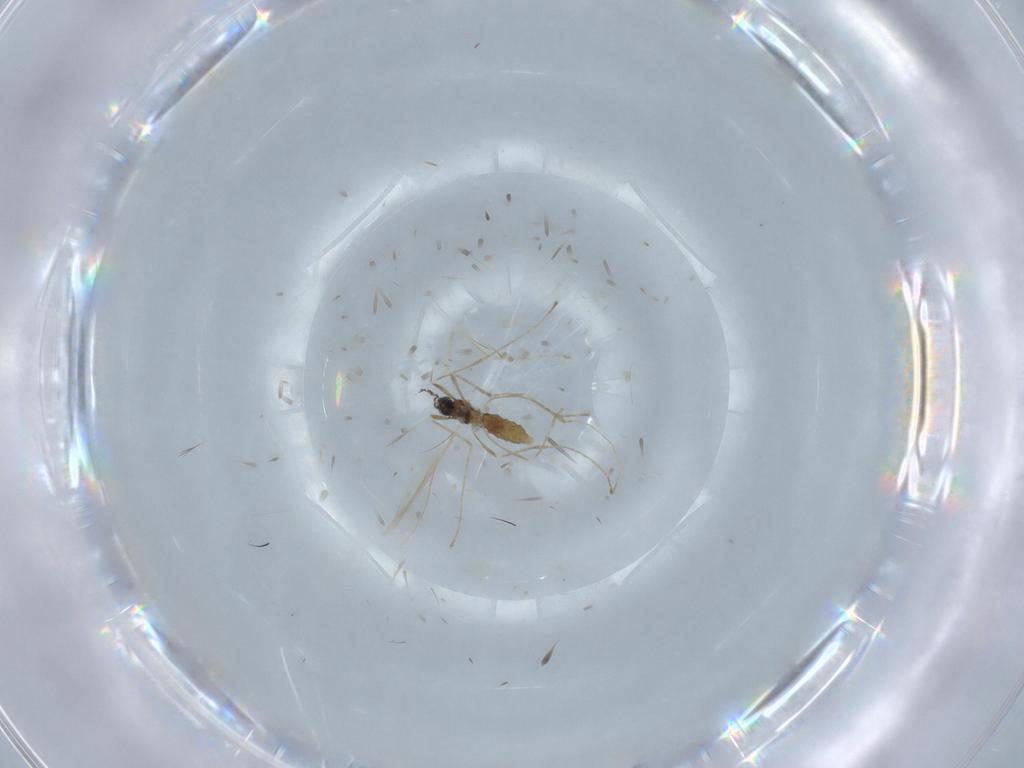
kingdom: Animalia
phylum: Arthropoda
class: Insecta
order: Diptera
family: Cecidomyiidae
